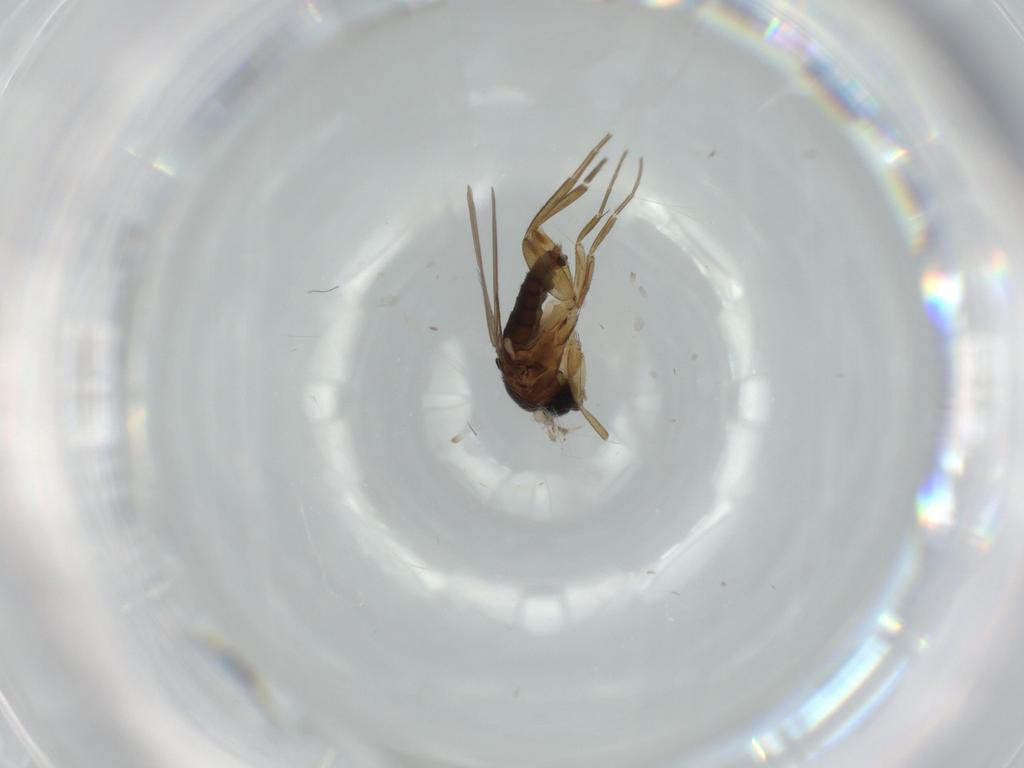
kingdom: Animalia
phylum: Arthropoda
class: Insecta
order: Diptera
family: Phoridae
